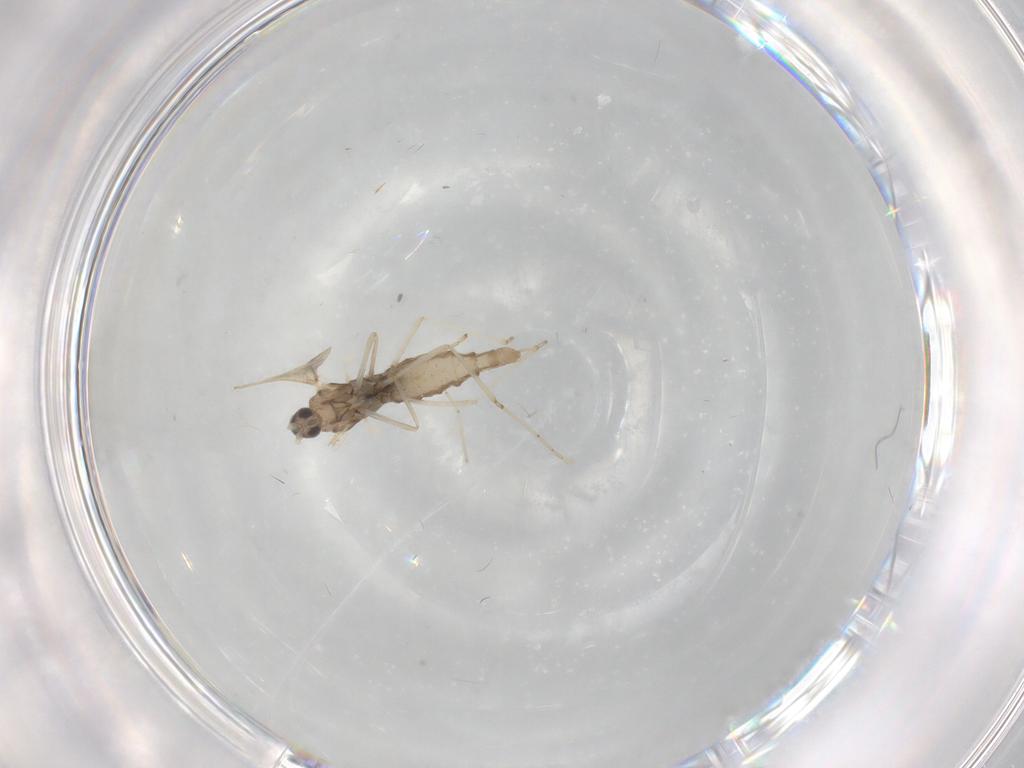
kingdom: Animalia
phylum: Arthropoda
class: Insecta
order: Diptera
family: Cecidomyiidae
